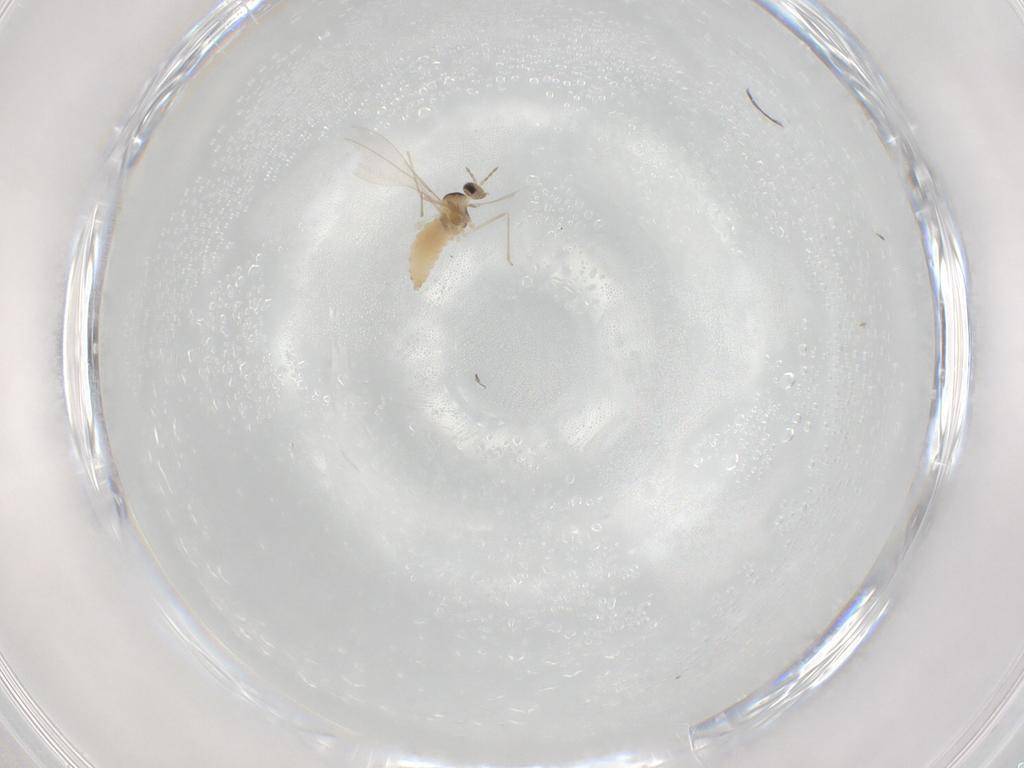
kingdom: Animalia
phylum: Arthropoda
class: Insecta
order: Diptera
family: Cecidomyiidae
